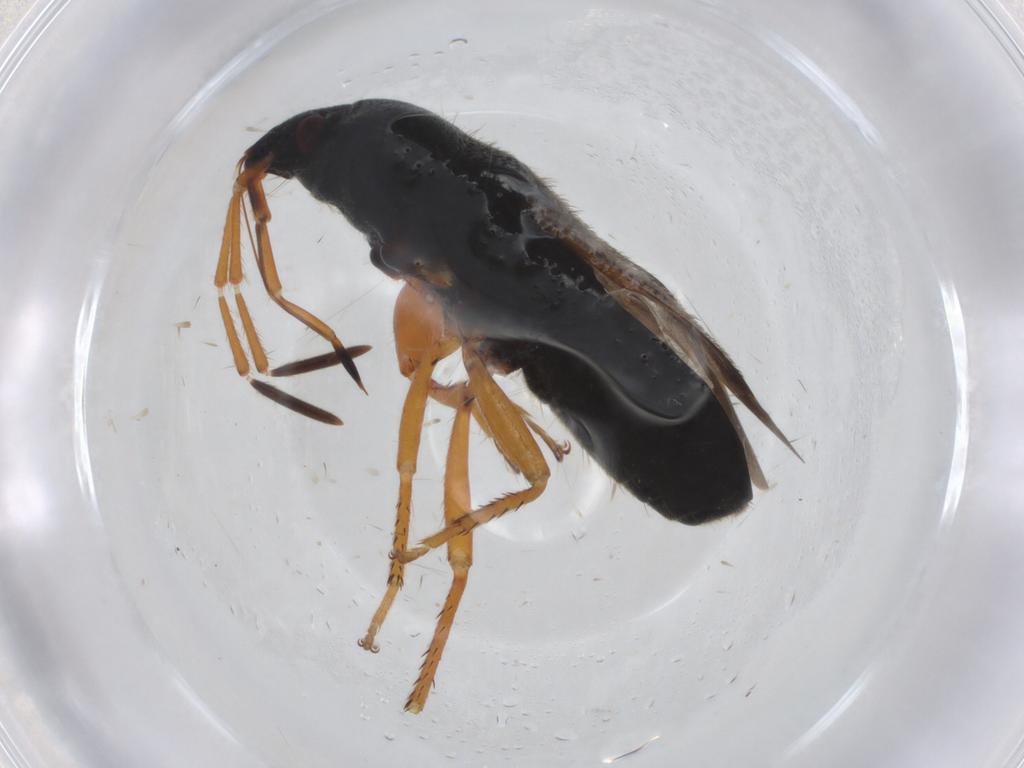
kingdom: Animalia
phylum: Arthropoda
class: Insecta
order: Hemiptera
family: Rhyparochromidae
